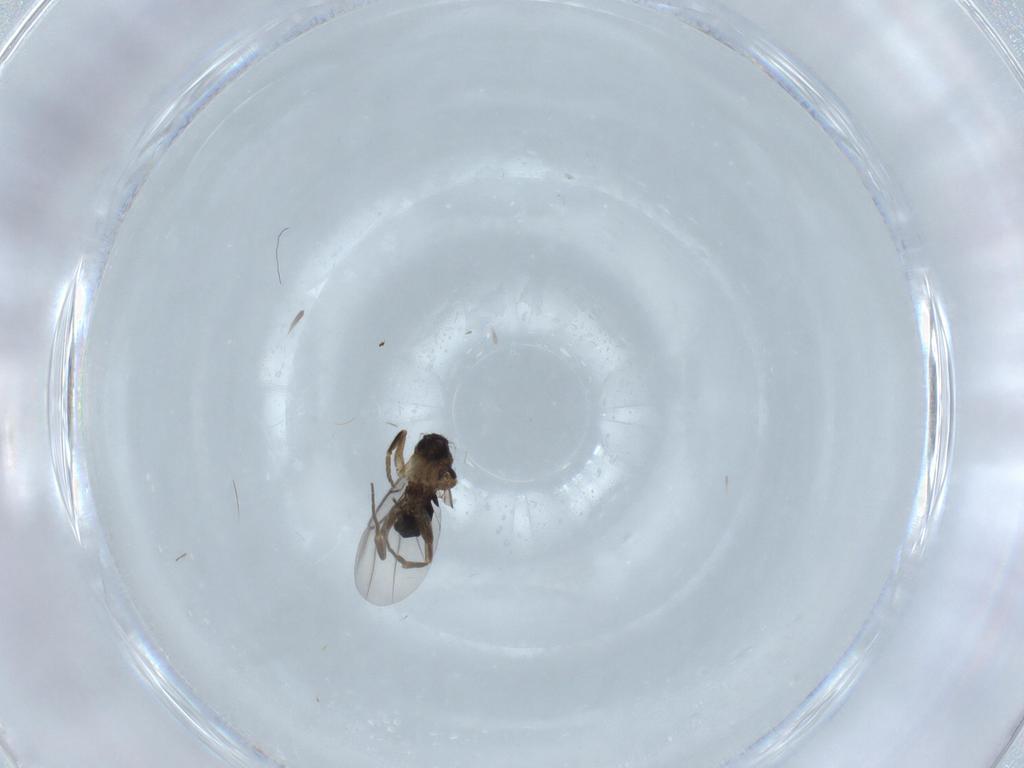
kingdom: Animalia
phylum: Arthropoda
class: Insecta
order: Diptera
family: Phoridae
